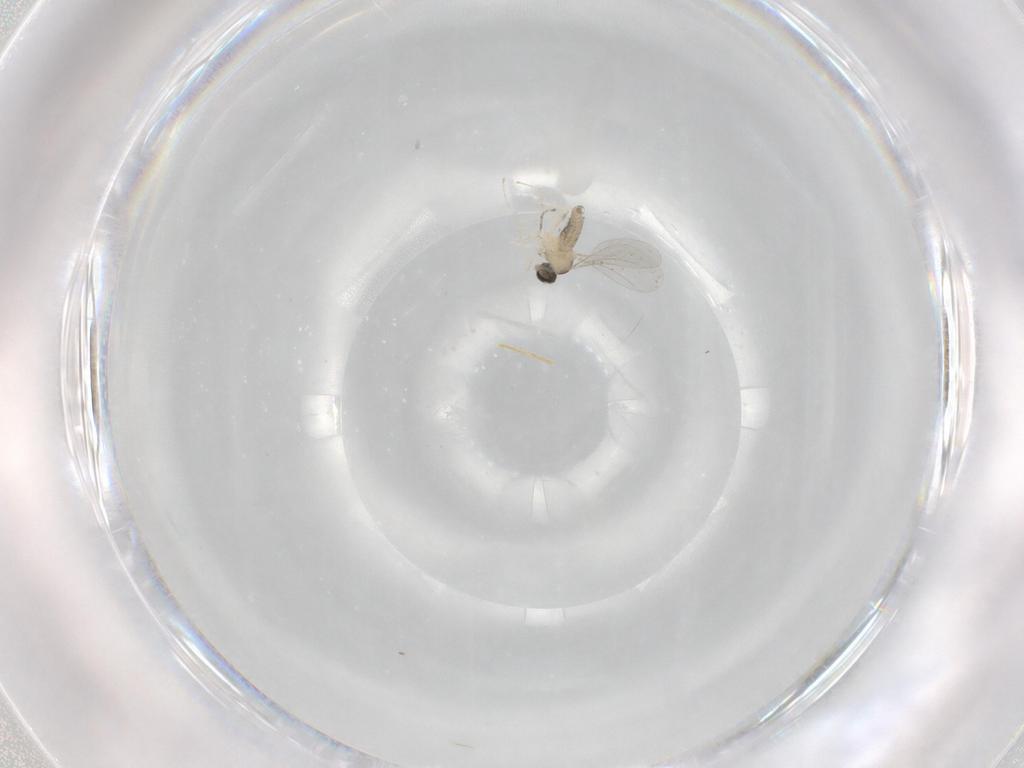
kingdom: Animalia
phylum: Arthropoda
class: Insecta
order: Diptera
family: Cecidomyiidae
